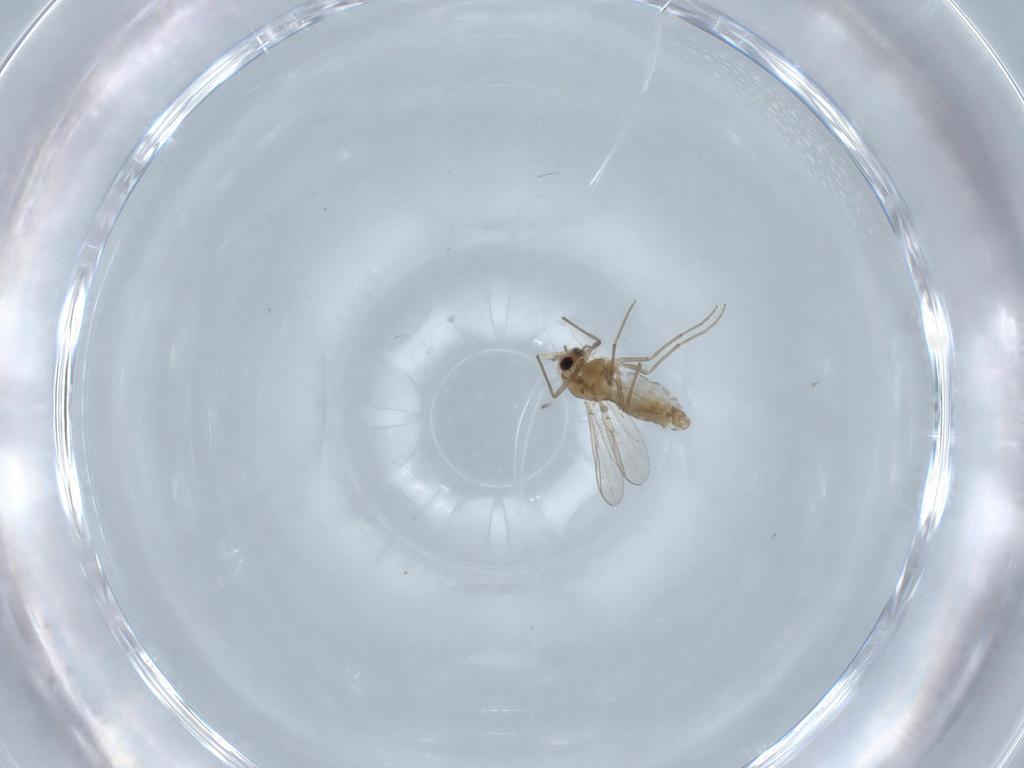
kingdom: Animalia
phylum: Arthropoda
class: Insecta
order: Diptera
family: Chironomidae
